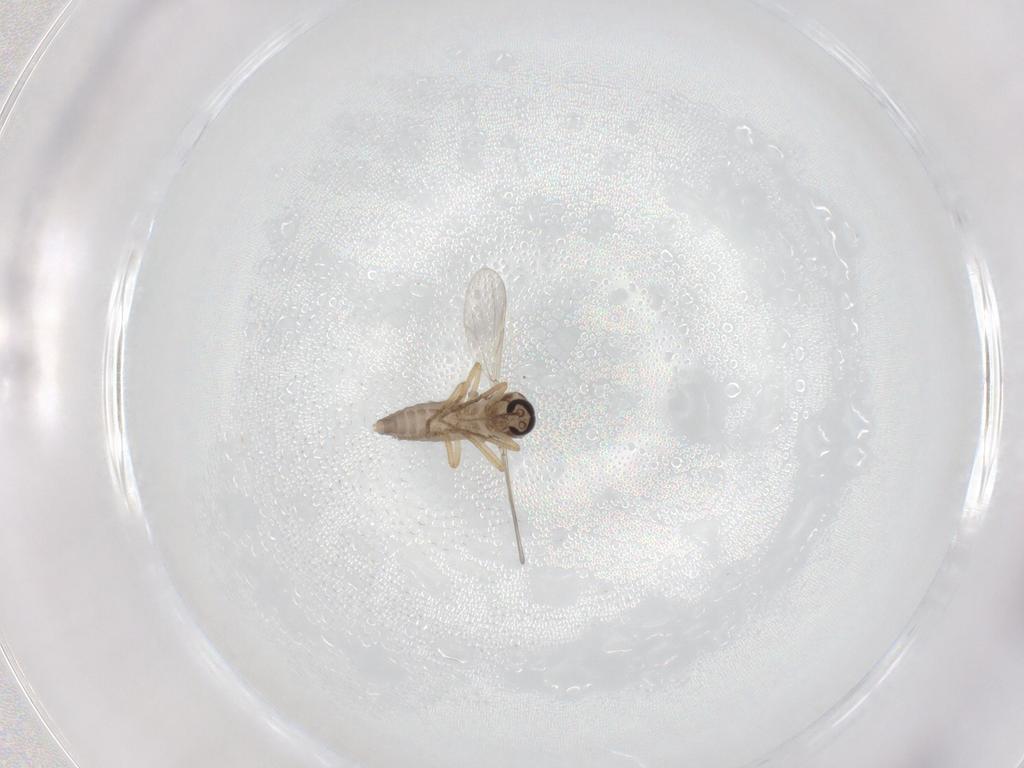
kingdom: Animalia
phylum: Arthropoda
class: Insecta
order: Diptera
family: Ceratopogonidae
